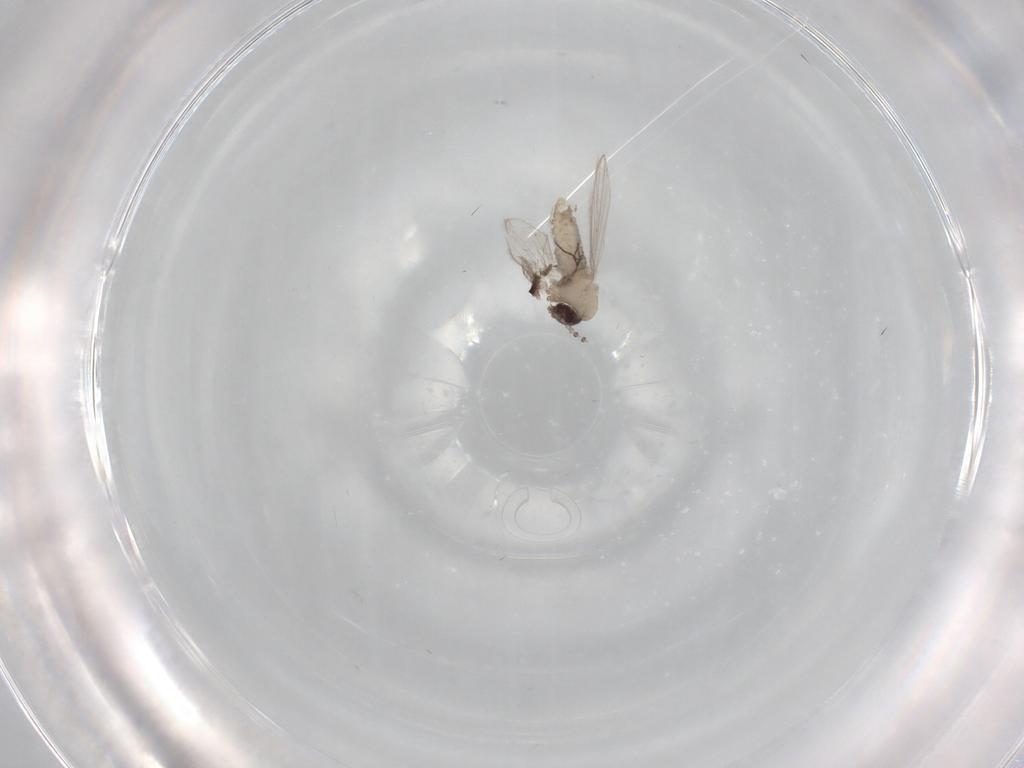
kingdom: Animalia
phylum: Arthropoda
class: Insecta
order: Diptera
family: Psychodidae
